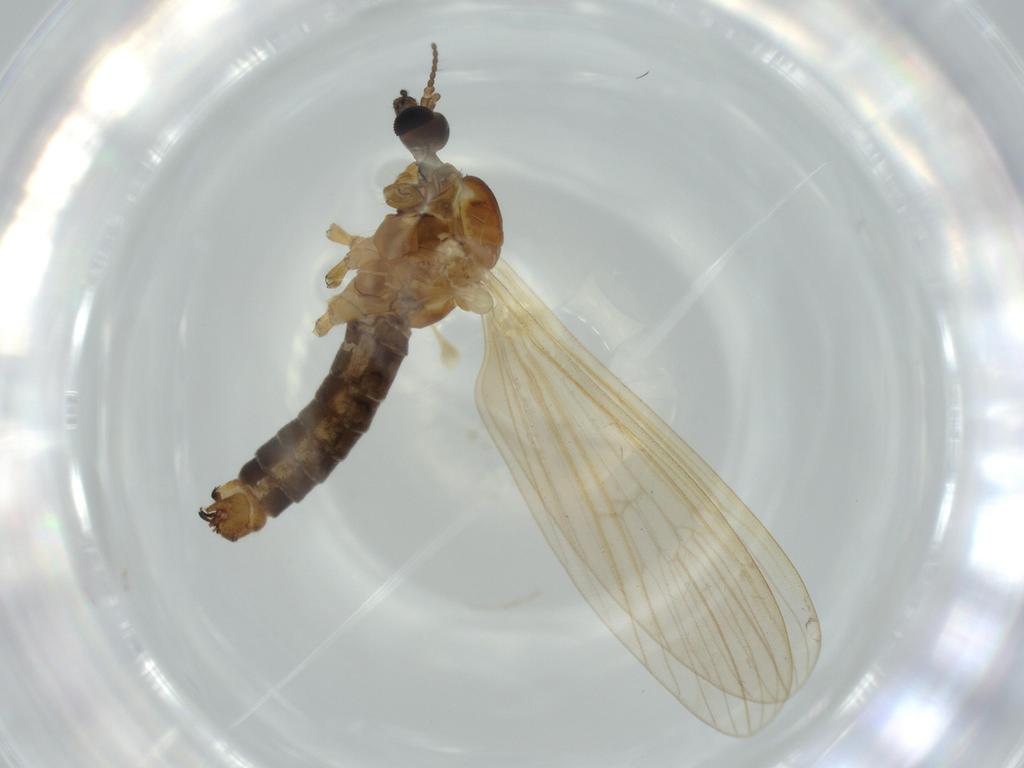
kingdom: Animalia
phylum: Arthropoda
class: Insecta
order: Diptera
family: Limoniidae
